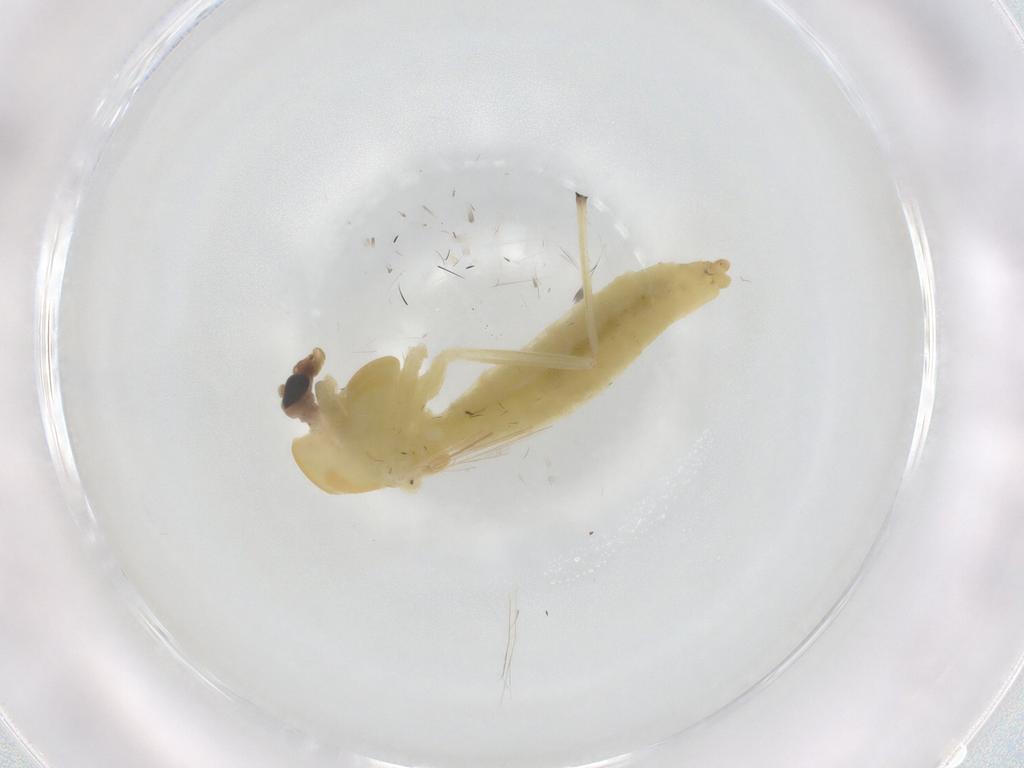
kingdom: Animalia
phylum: Arthropoda
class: Insecta
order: Diptera
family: Chironomidae
